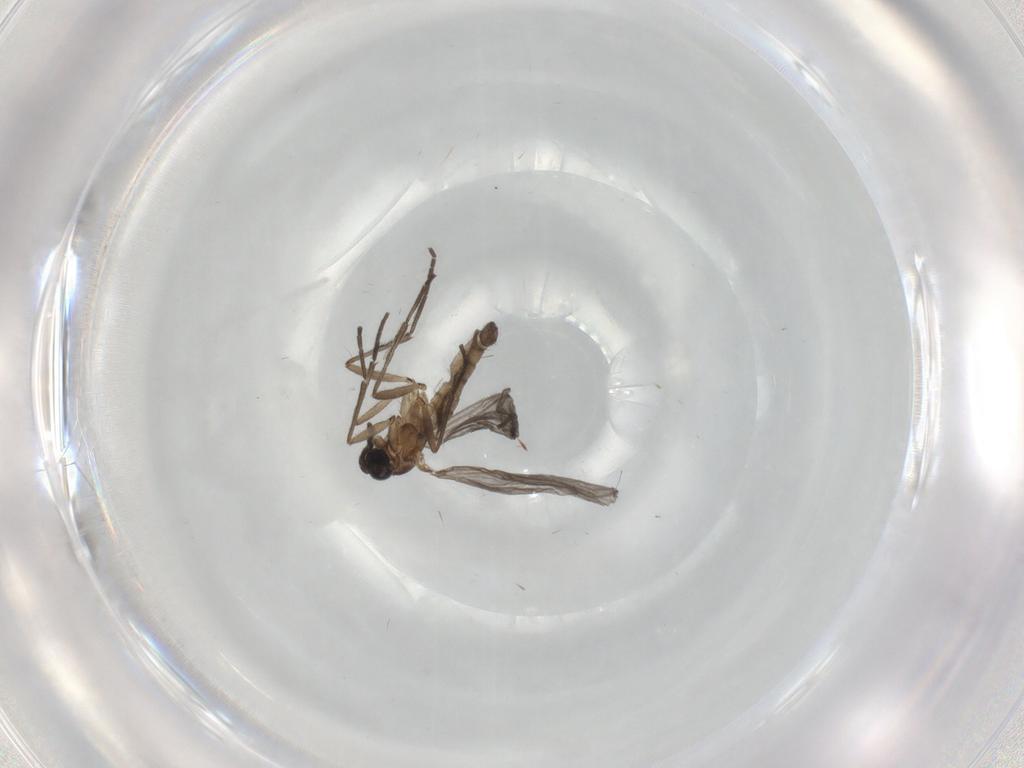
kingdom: Animalia
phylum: Arthropoda
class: Insecta
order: Diptera
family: Sciaridae
